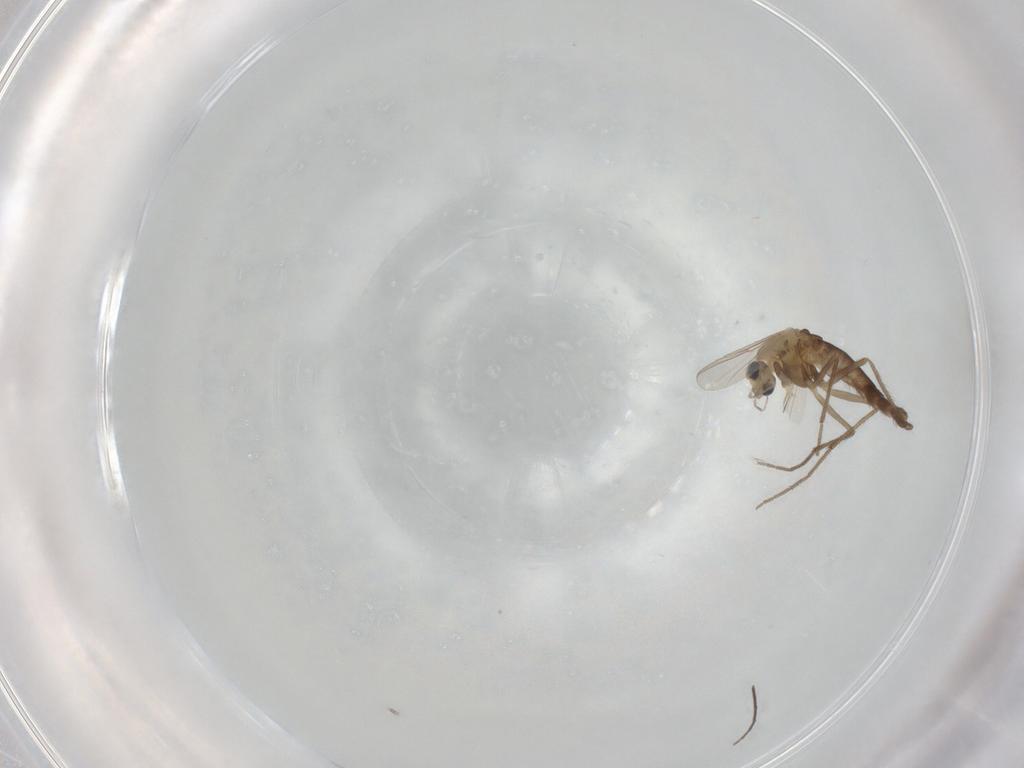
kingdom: Animalia
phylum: Arthropoda
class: Insecta
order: Diptera
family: Chironomidae
